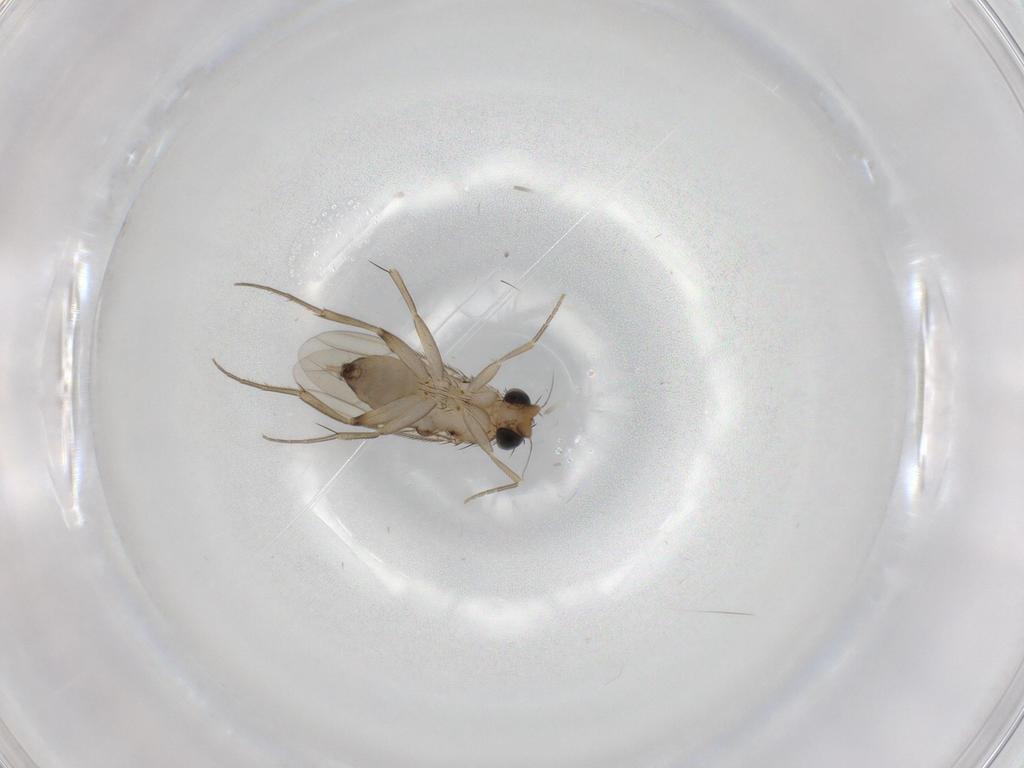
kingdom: Animalia
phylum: Arthropoda
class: Insecta
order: Diptera
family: Phoridae
